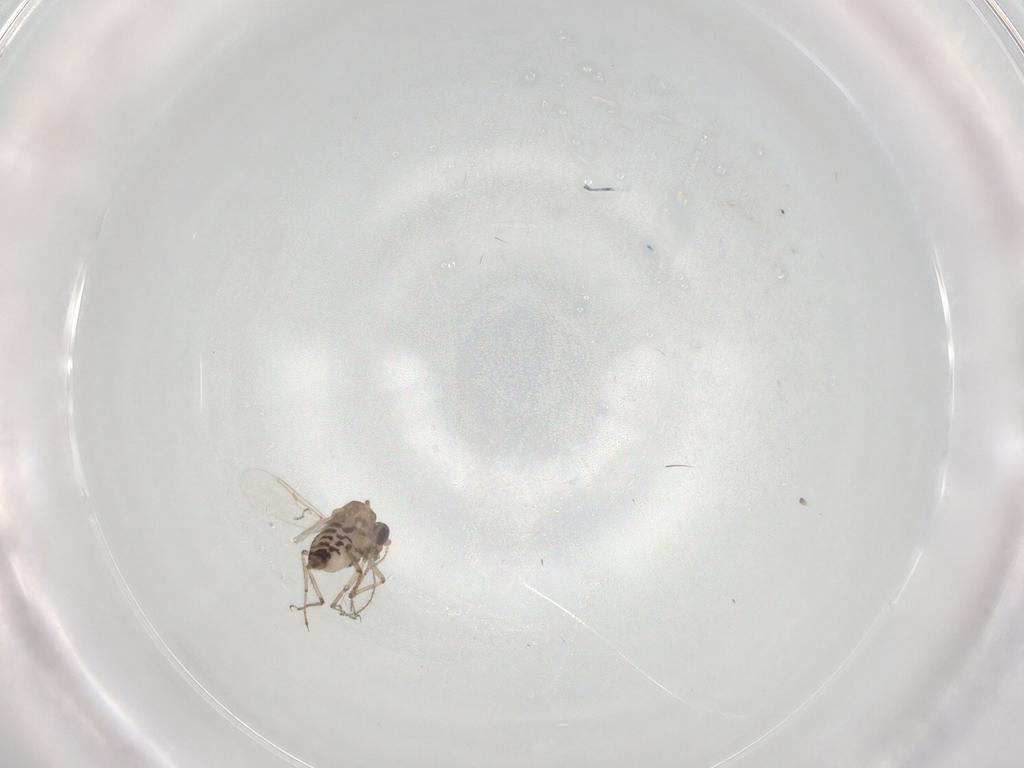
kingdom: Animalia
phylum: Arthropoda
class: Insecta
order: Diptera
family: Ceratopogonidae
